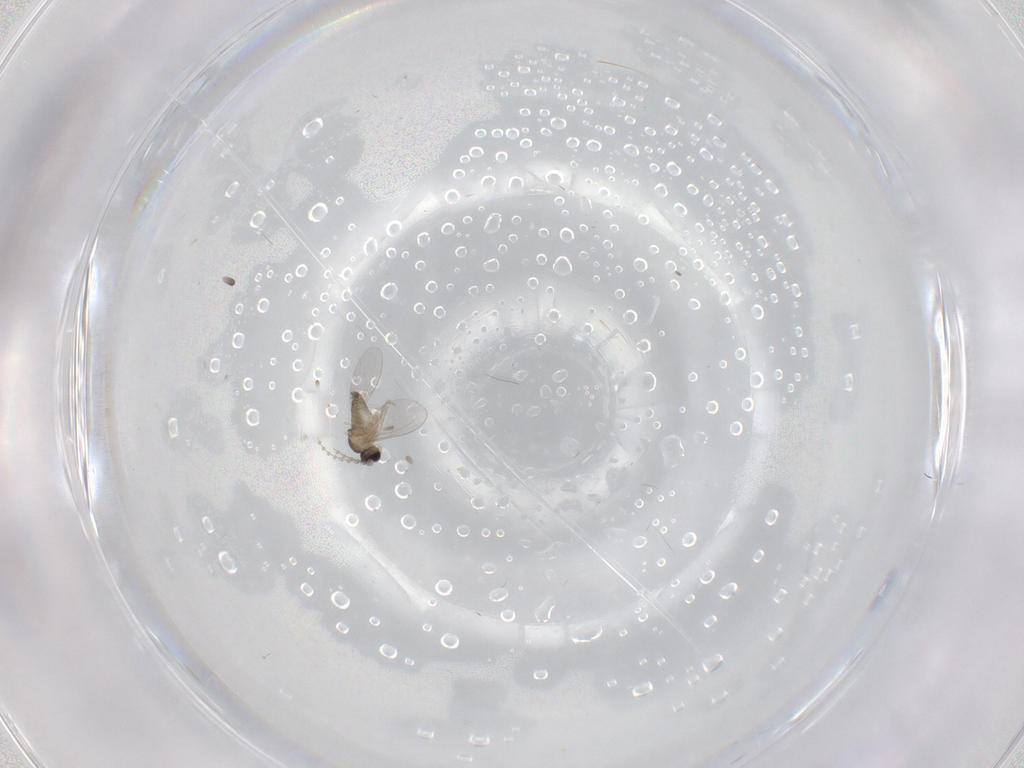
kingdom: Animalia
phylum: Arthropoda
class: Insecta
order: Diptera
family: Cecidomyiidae
